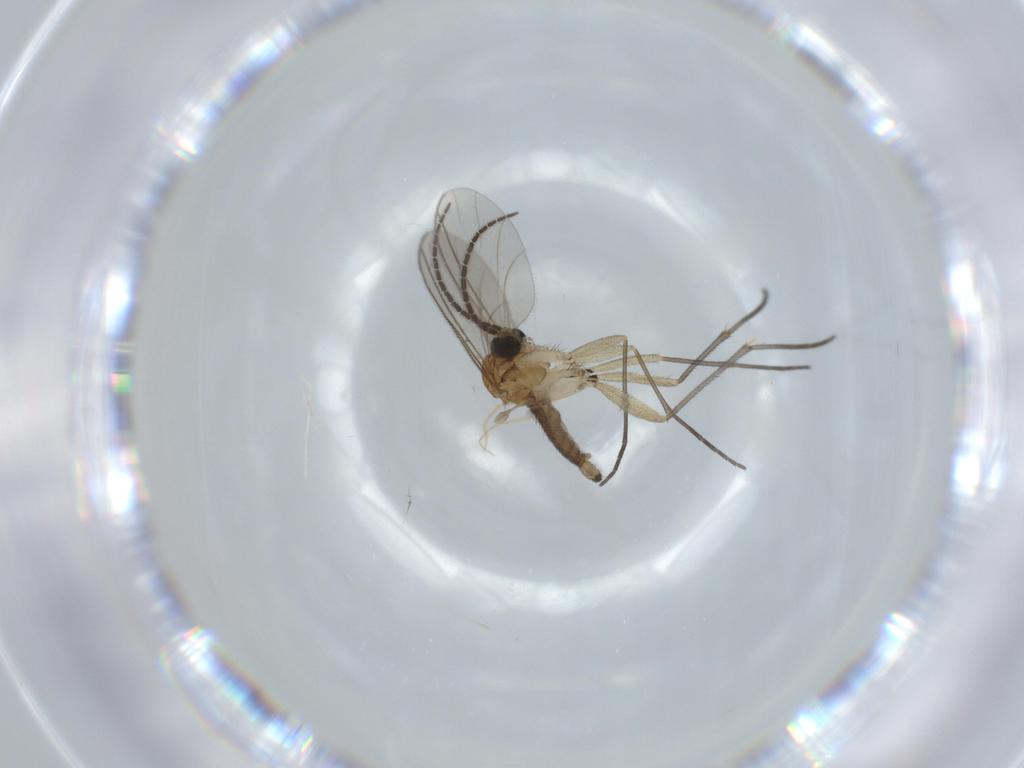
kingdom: Animalia
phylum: Arthropoda
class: Insecta
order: Diptera
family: Sciaridae
